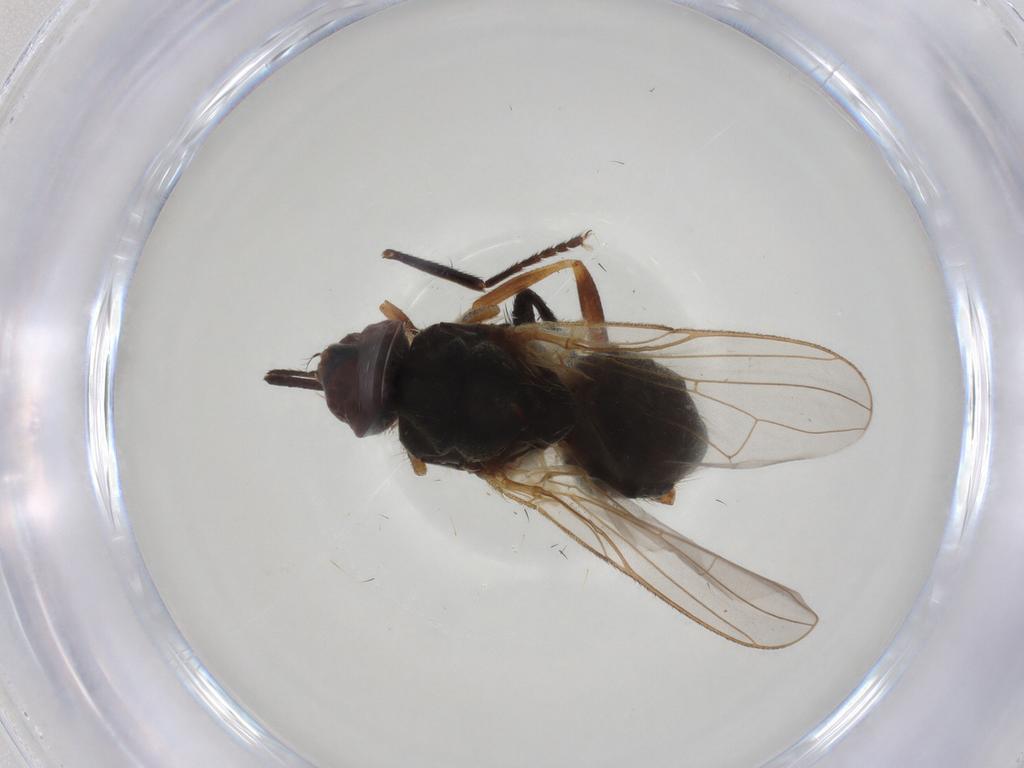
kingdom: Animalia
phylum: Arthropoda
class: Insecta
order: Diptera
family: Muscidae
